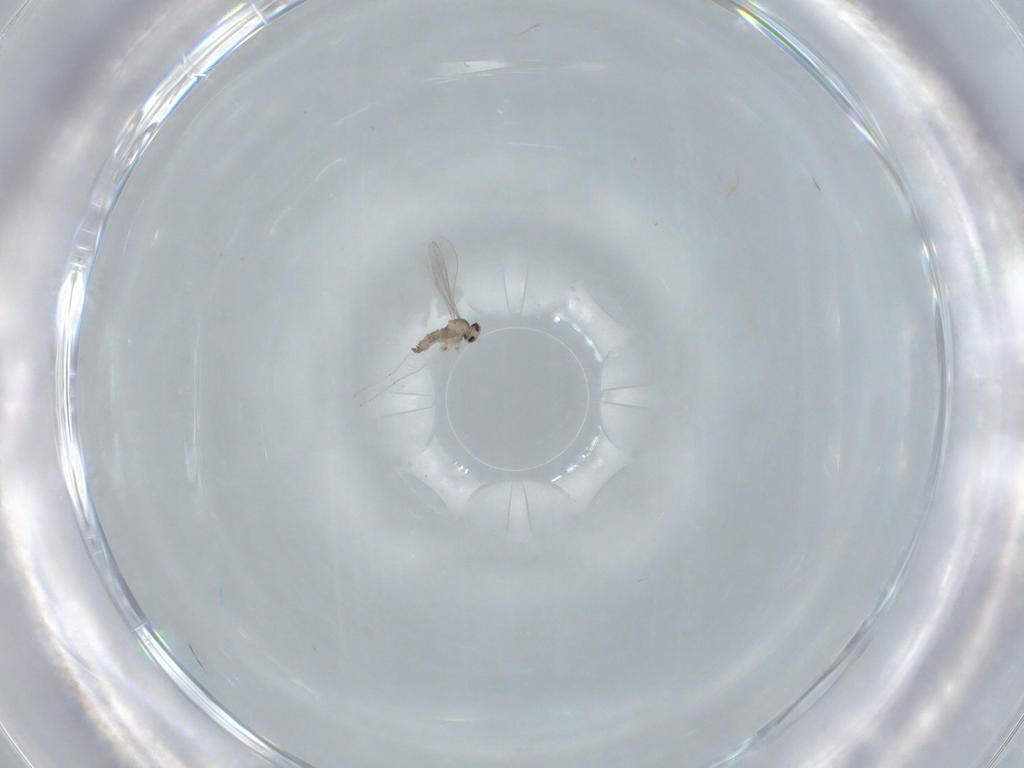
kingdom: Animalia
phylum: Arthropoda
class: Insecta
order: Diptera
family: Cecidomyiidae
